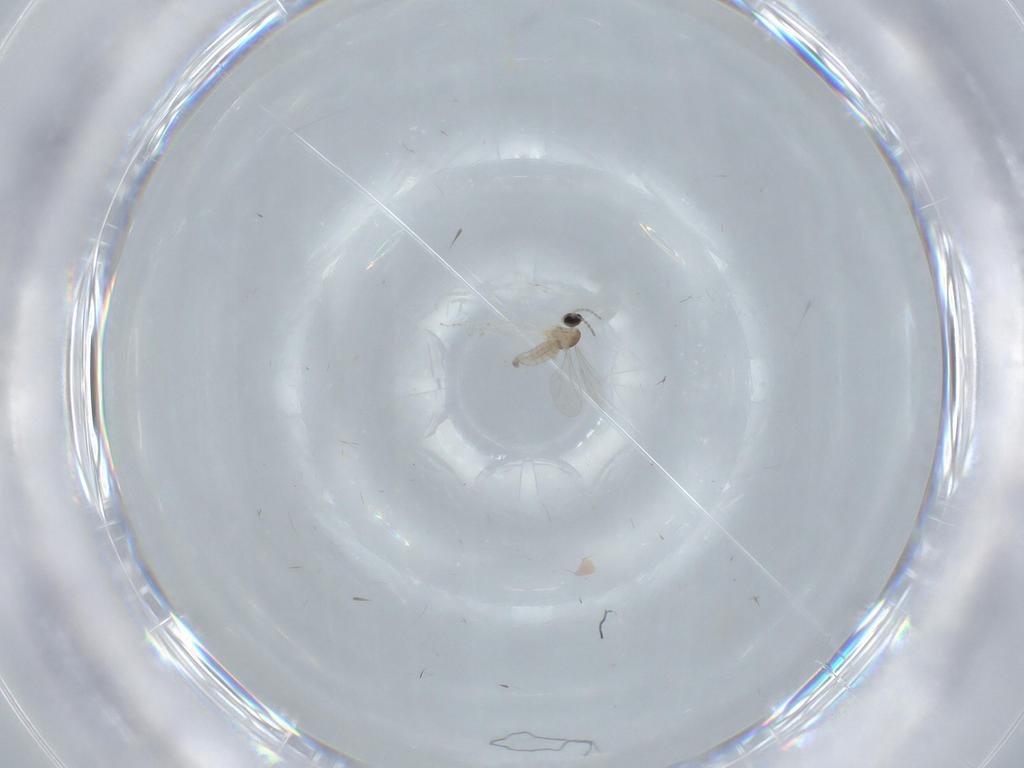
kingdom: Animalia
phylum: Arthropoda
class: Insecta
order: Diptera
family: Cecidomyiidae
